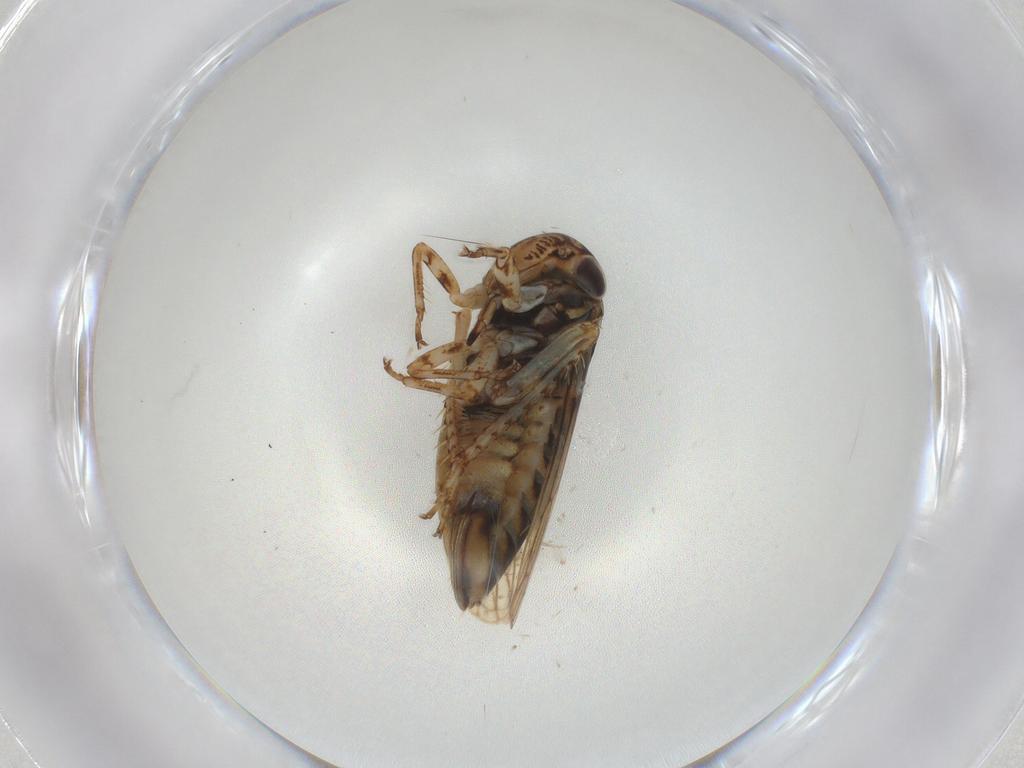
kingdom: Animalia
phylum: Arthropoda
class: Insecta
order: Hemiptera
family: Cicadellidae
